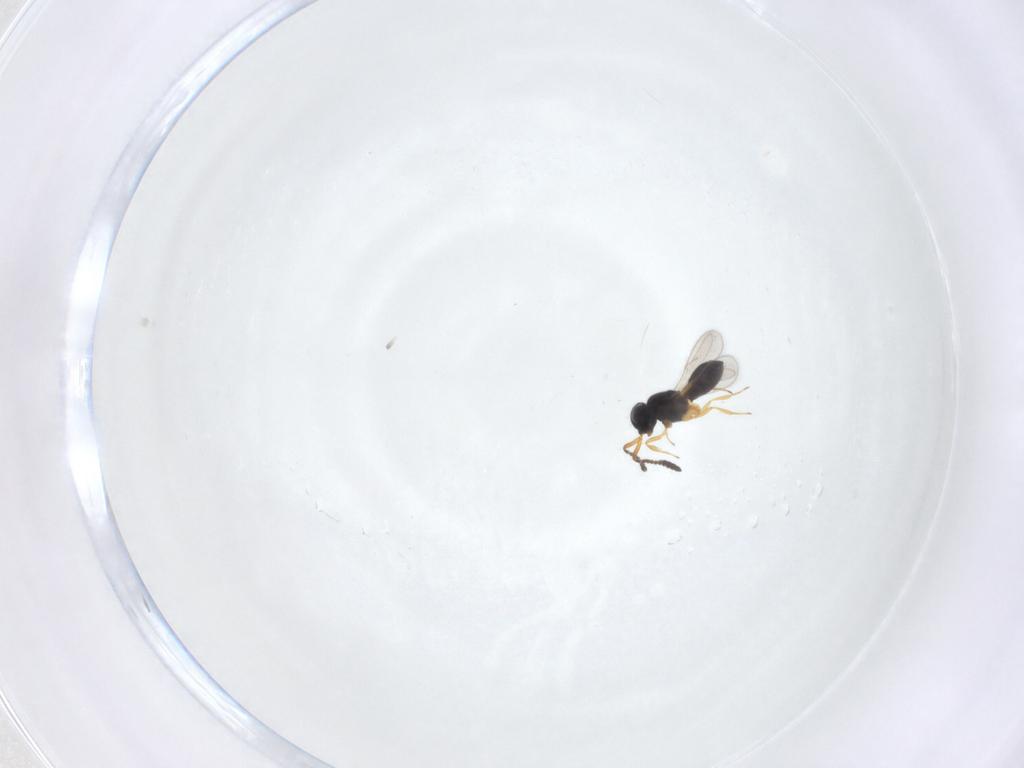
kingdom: Animalia
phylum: Arthropoda
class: Insecta
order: Hymenoptera
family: Scelionidae
